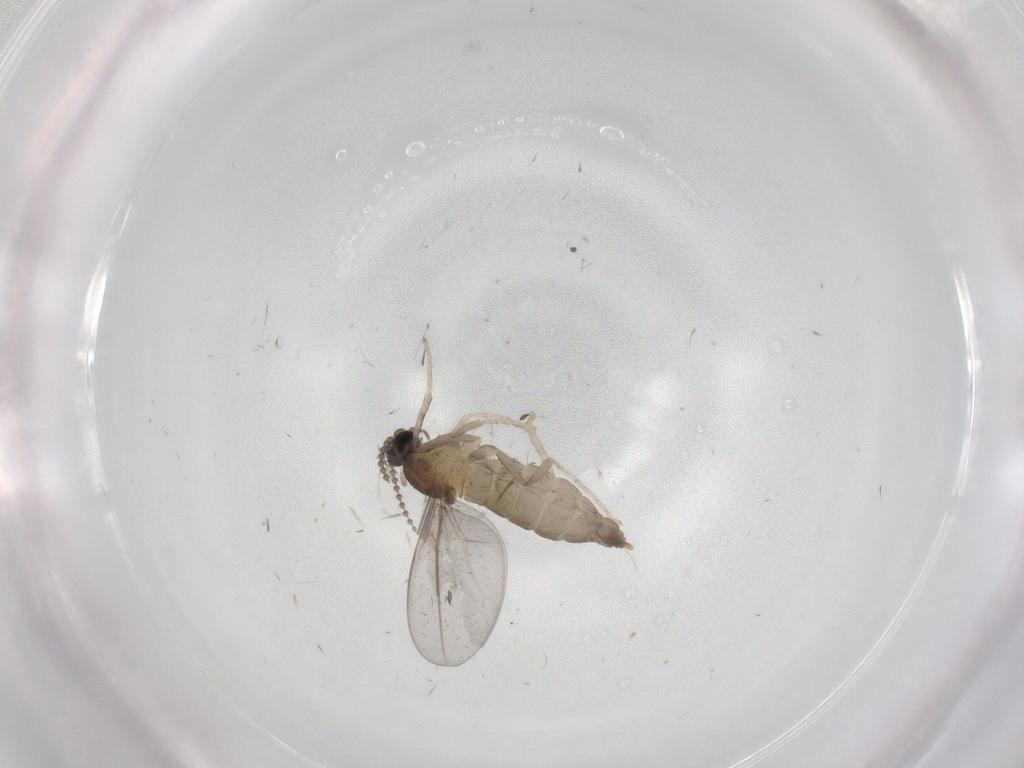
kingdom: Animalia
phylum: Arthropoda
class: Insecta
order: Diptera
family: Cecidomyiidae
